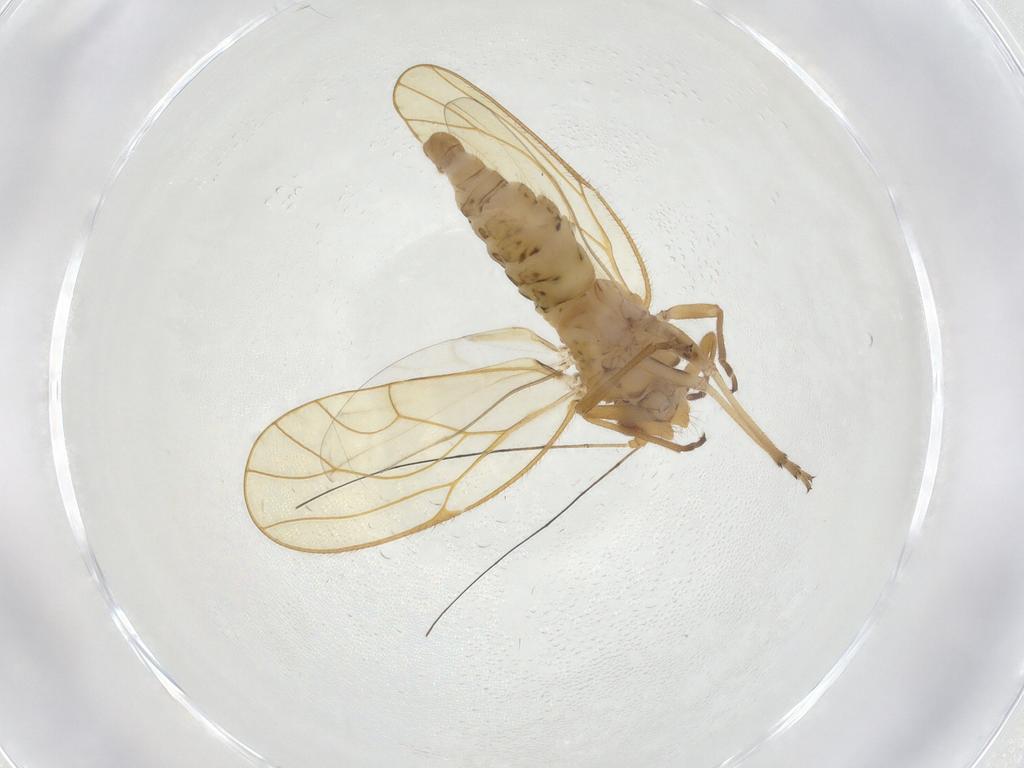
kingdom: Animalia
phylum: Arthropoda
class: Insecta
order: Hemiptera
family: Psyllidae
